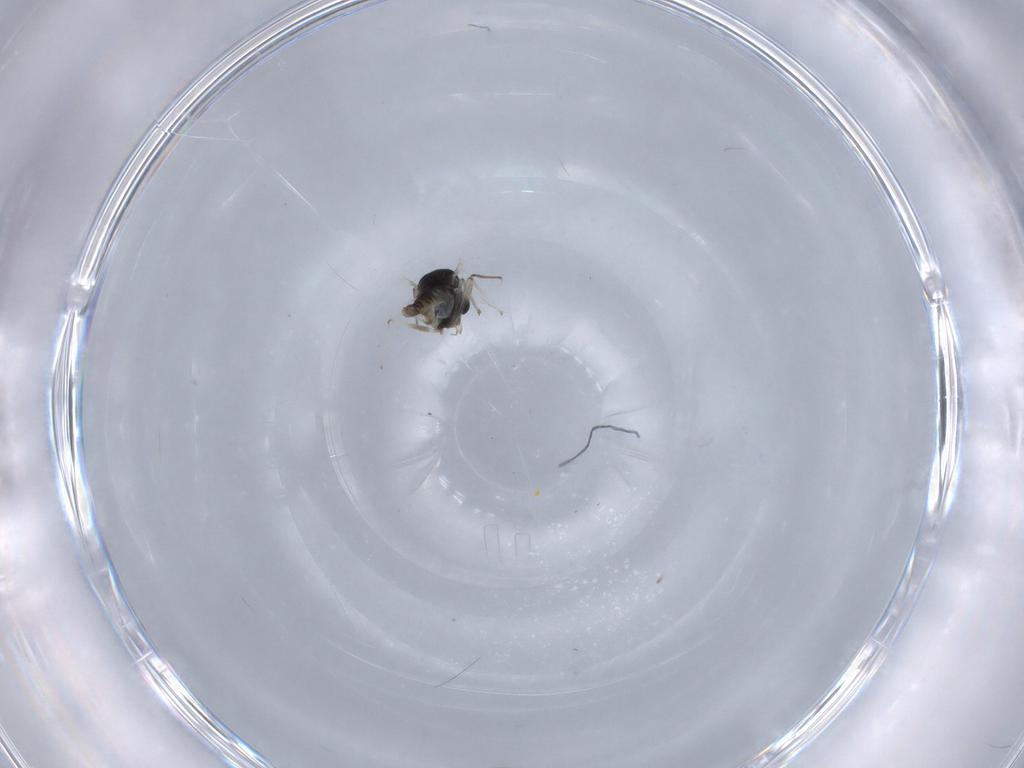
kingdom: Animalia
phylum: Arthropoda
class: Insecta
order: Diptera
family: Chironomidae
